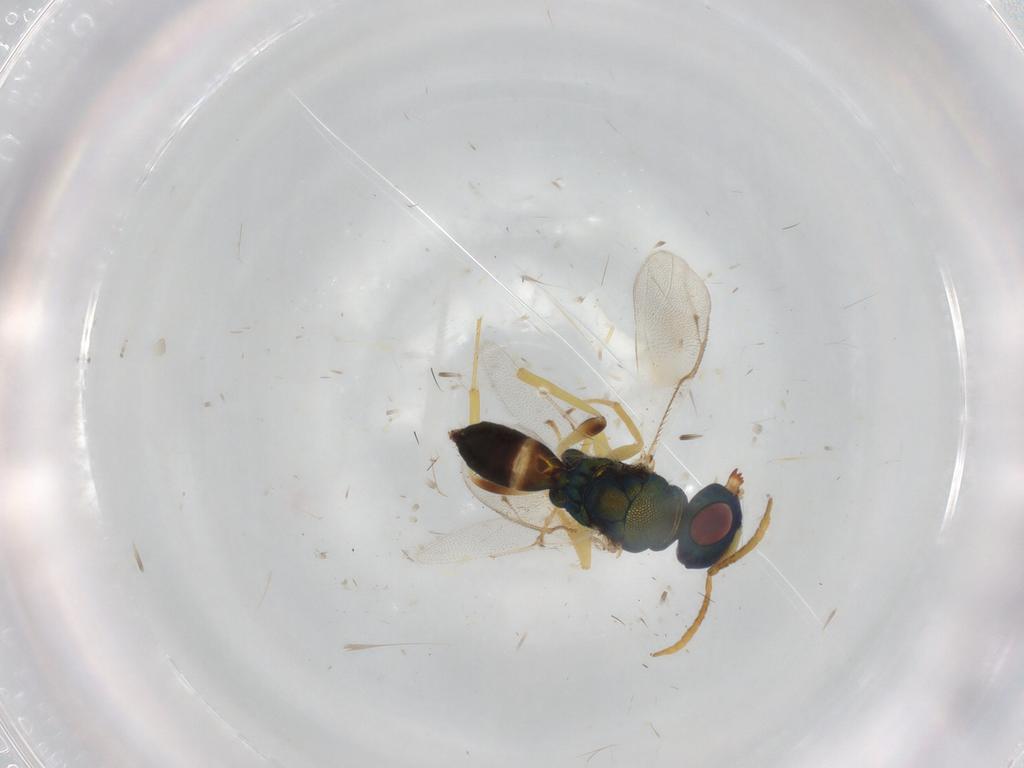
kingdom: Animalia
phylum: Arthropoda
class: Insecta
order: Hymenoptera
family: Pteromalidae
